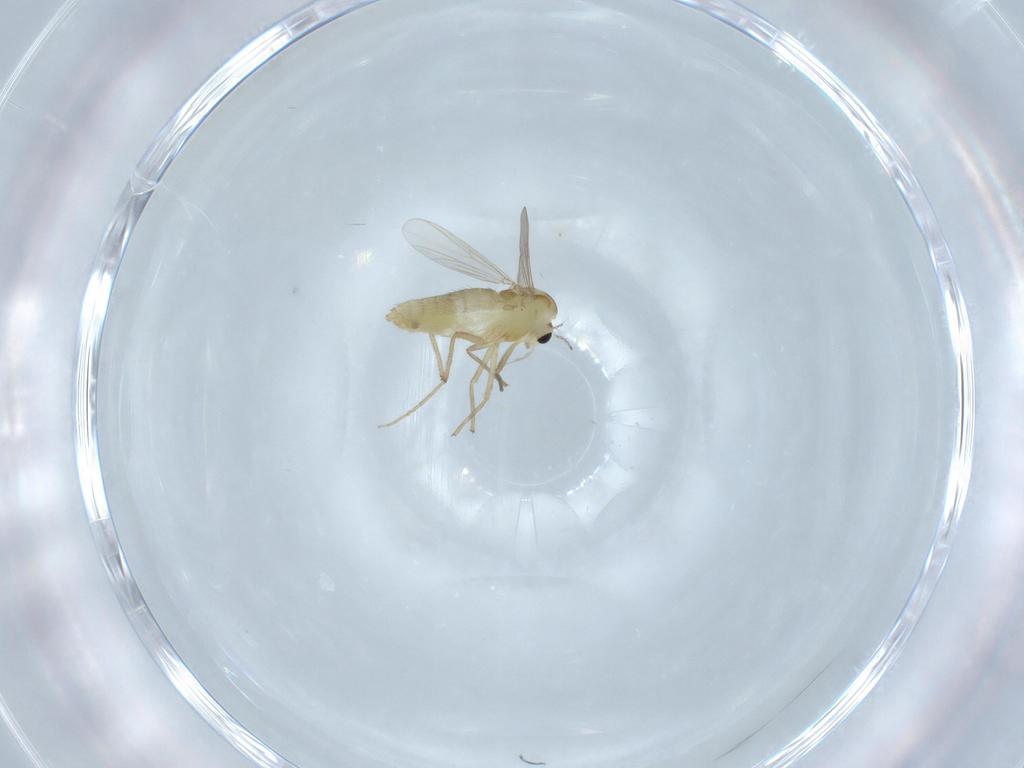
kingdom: Animalia
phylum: Arthropoda
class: Insecta
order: Diptera
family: Chironomidae
